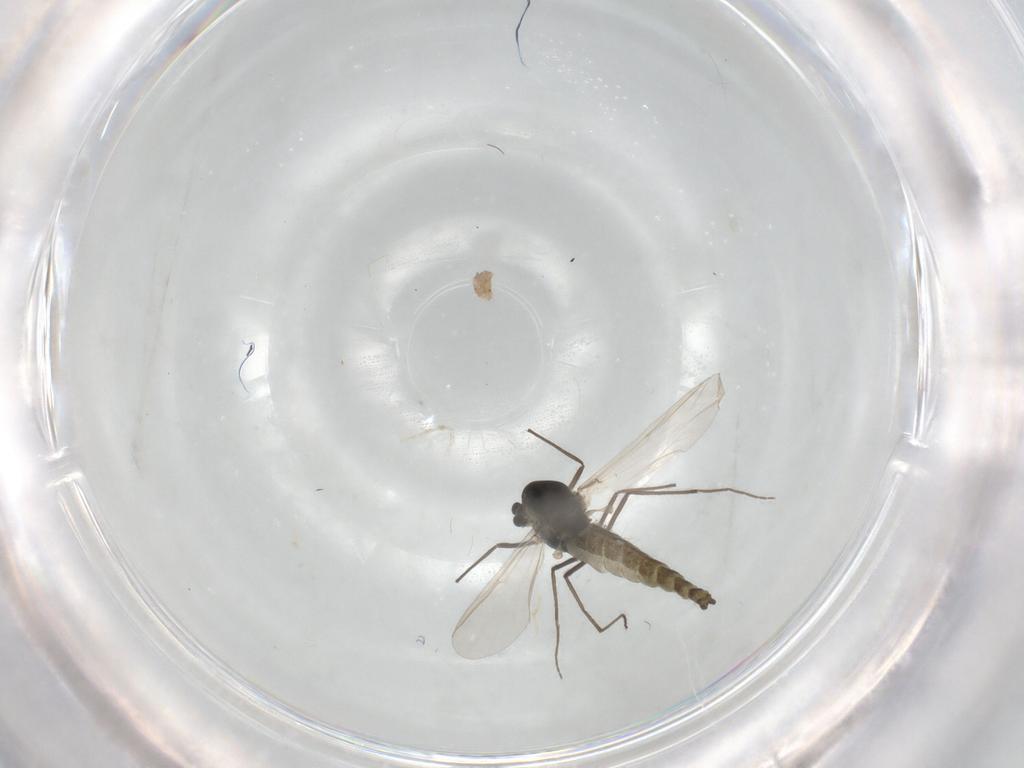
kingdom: Animalia
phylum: Arthropoda
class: Insecta
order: Diptera
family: Chironomidae
